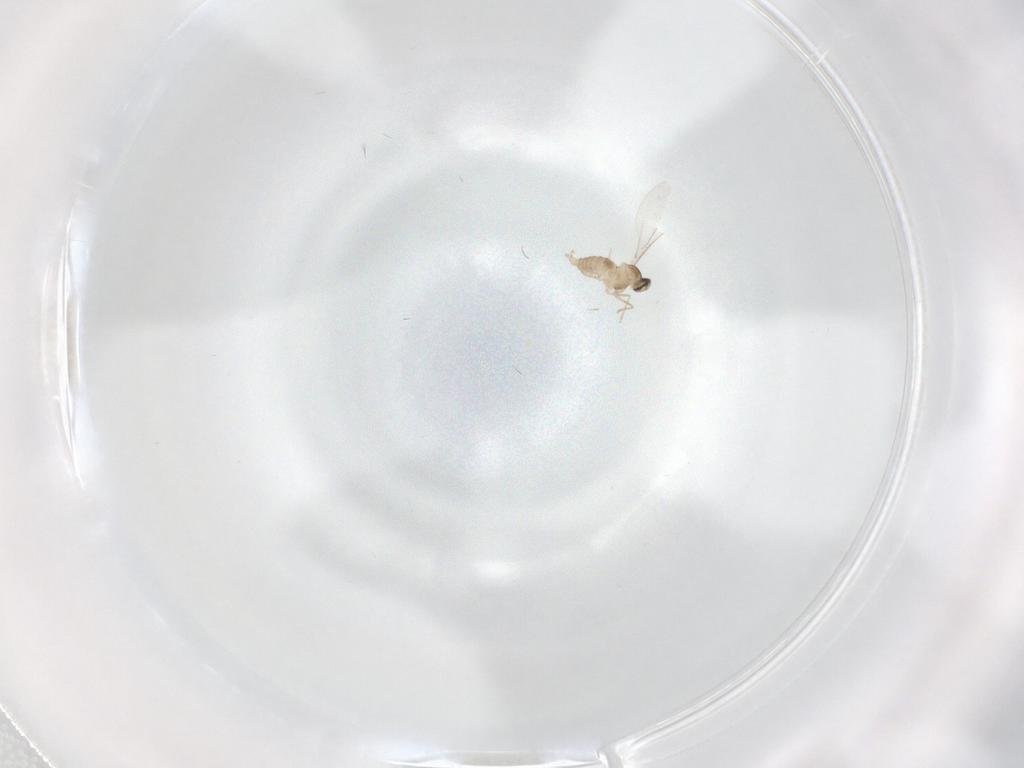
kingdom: Animalia
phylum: Arthropoda
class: Insecta
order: Diptera
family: Cecidomyiidae
